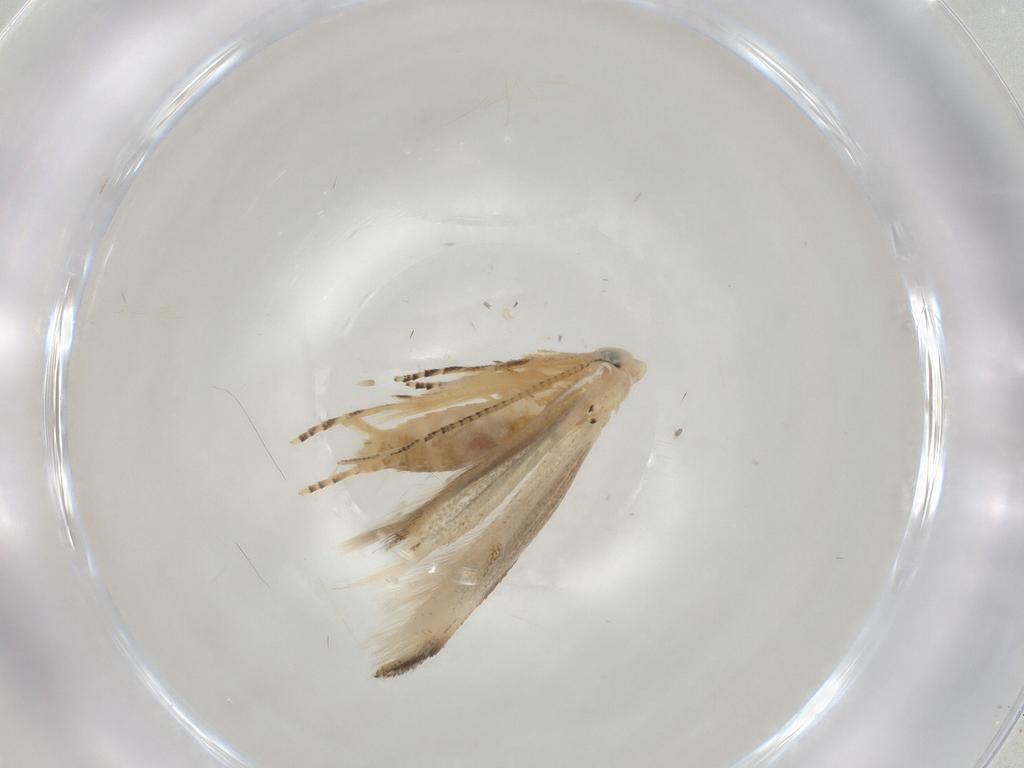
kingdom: Animalia
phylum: Arthropoda
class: Insecta
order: Lepidoptera
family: Bucculatricidae
